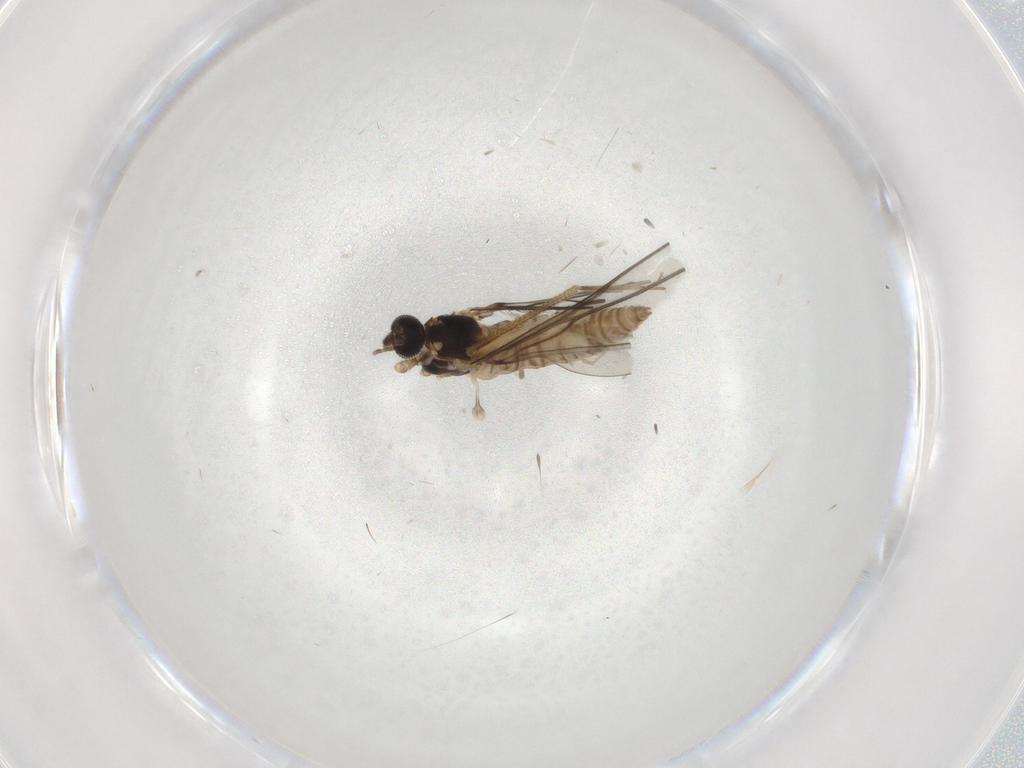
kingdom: Animalia
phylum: Arthropoda
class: Insecta
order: Diptera
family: Cecidomyiidae
